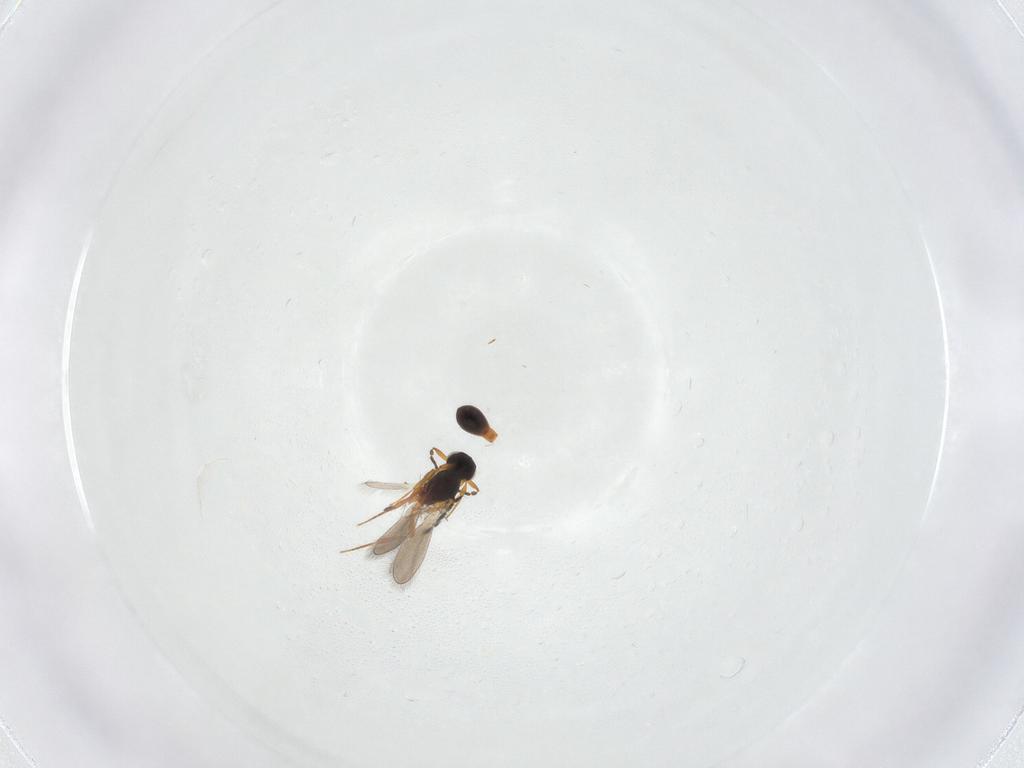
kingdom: Animalia
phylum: Arthropoda
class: Insecta
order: Hymenoptera
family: Platygastridae
